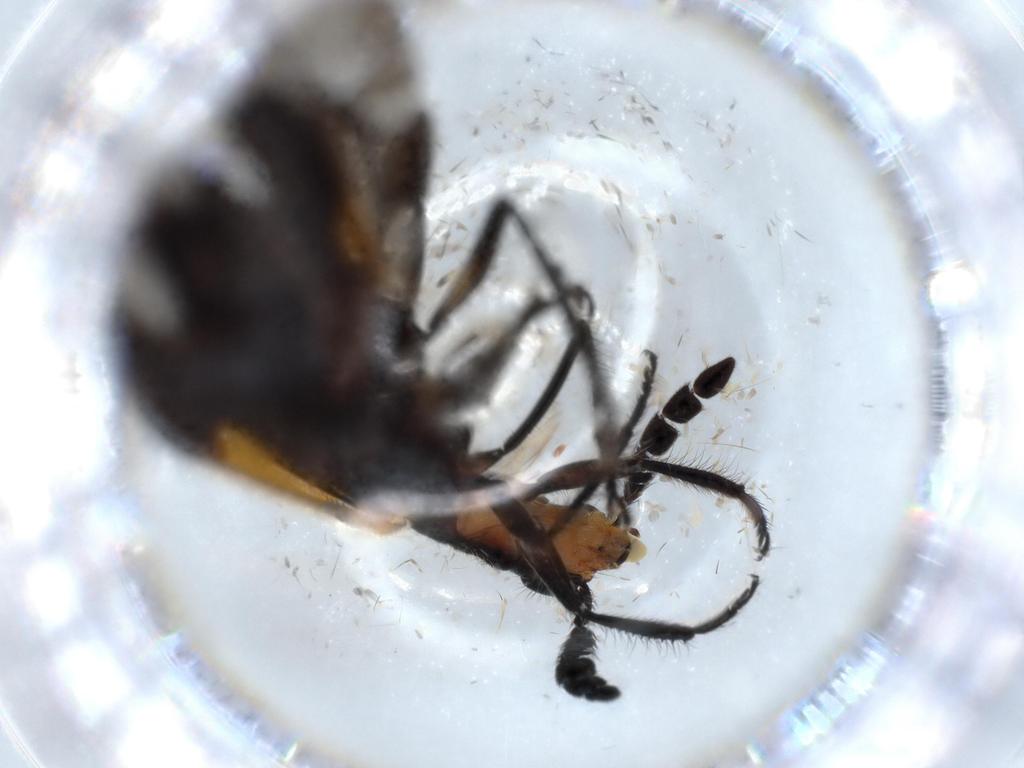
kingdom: Animalia
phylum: Arthropoda
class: Insecta
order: Coleoptera
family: Cleridae
